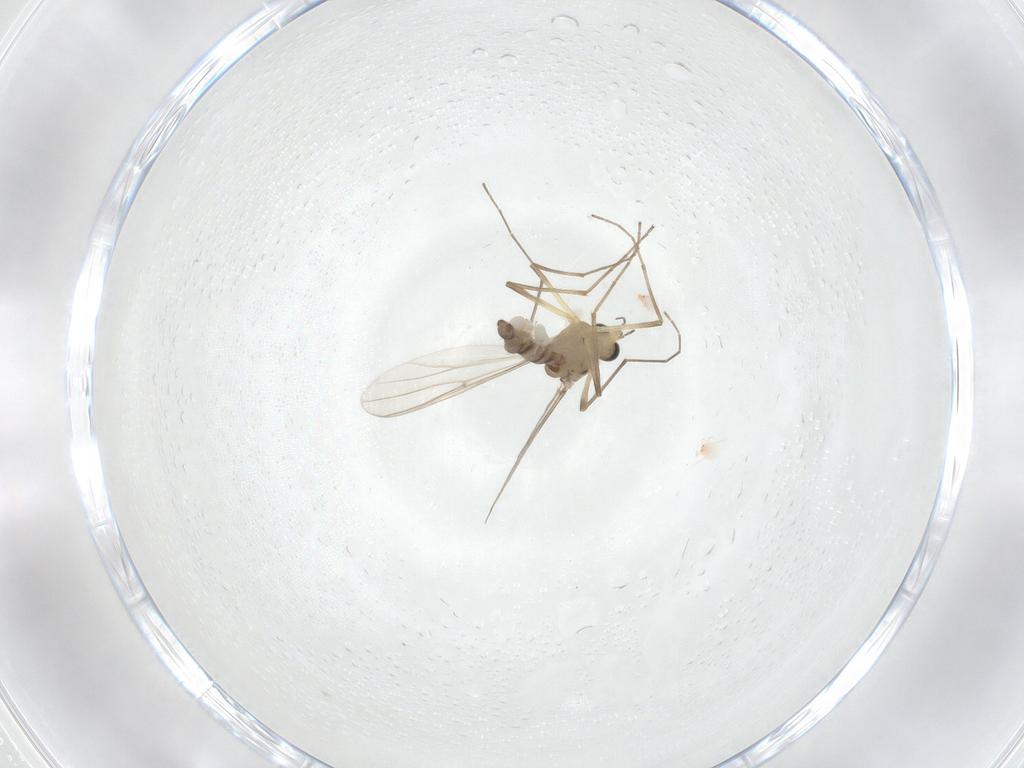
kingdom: Animalia
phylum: Arthropoda
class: Insecta
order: Diptera
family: Chironomidae
